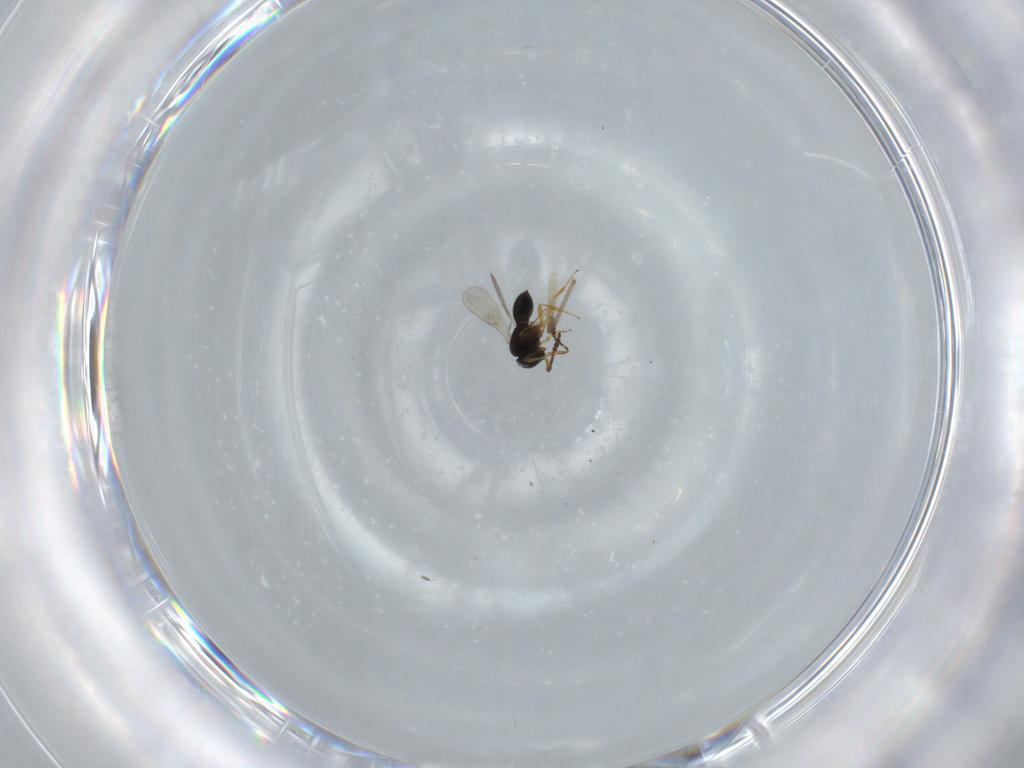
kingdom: Animalia
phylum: Arthropoda
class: Insecta
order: Hymenoptera
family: Scelionidae
